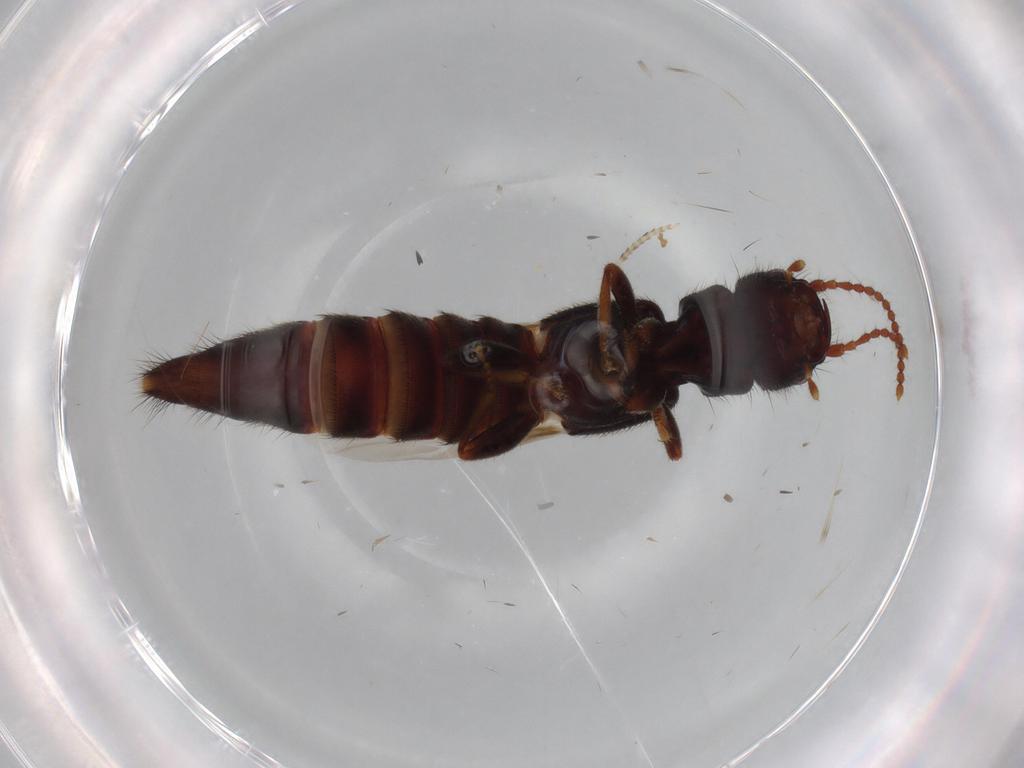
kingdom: Animalia
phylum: Arthropoda
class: Insecta
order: Coleoptera
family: Staphylinidae
